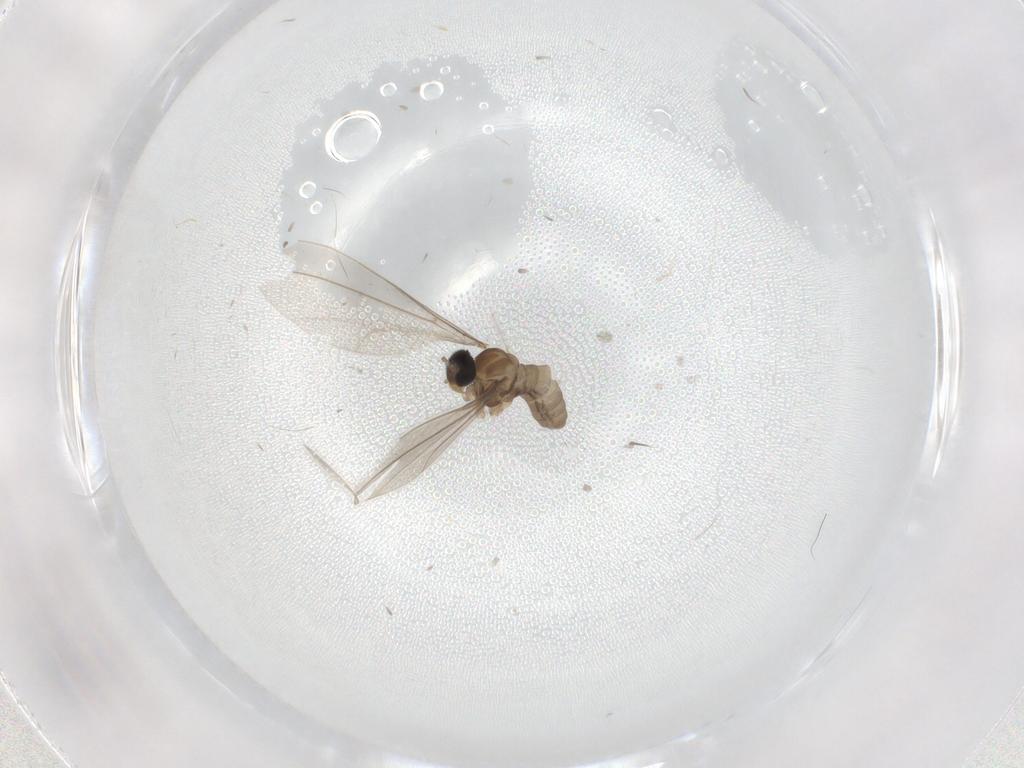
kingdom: Animalia
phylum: Arthropoda
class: Insecta
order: Diptera
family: Cecidomyiidae
